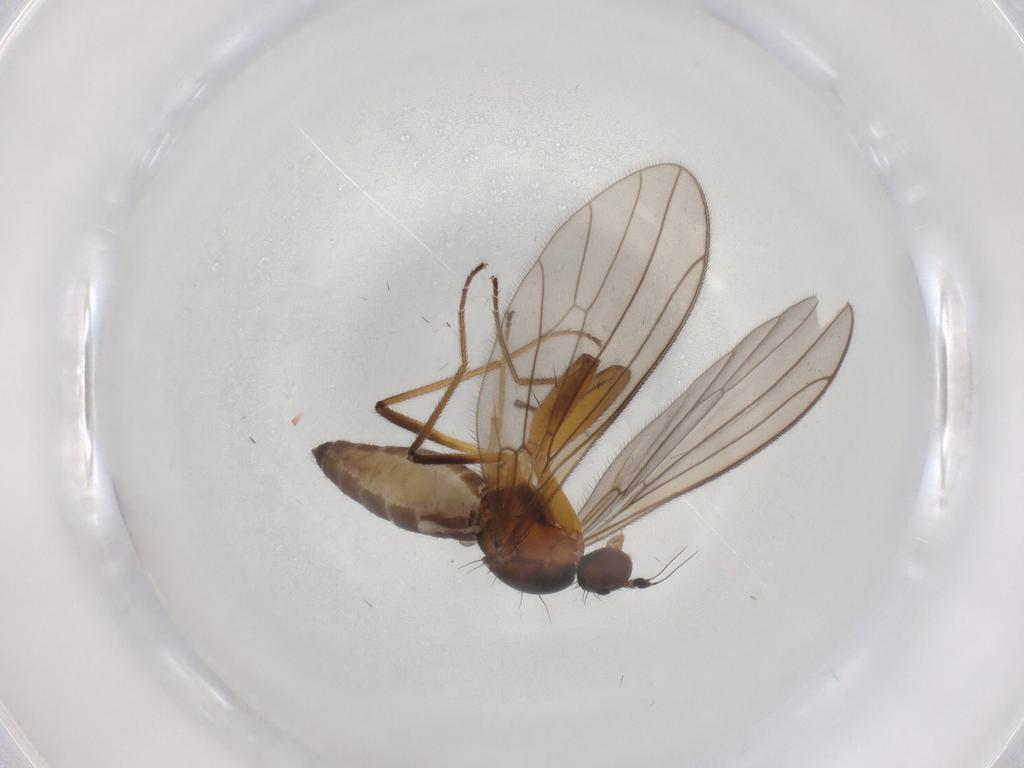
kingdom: Animalia
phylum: Arthropoda
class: Insecta
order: Diptera
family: Empididae
